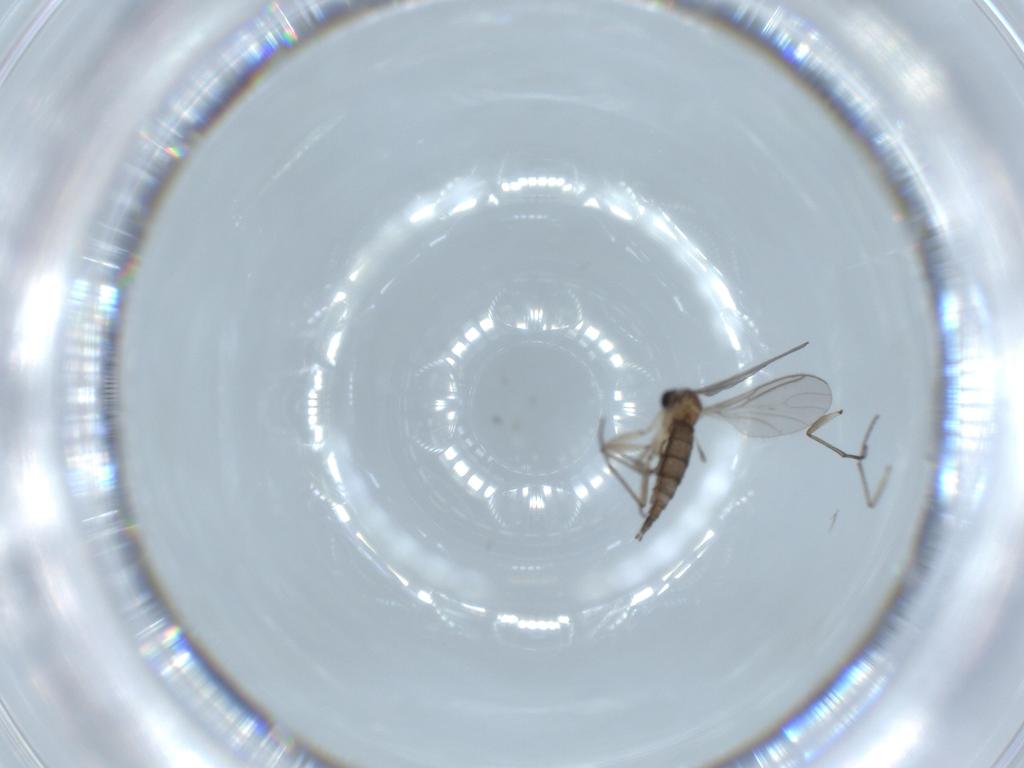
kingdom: Animalia
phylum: Arthropoda
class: Insecta
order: Diptera
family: Sciaridae
